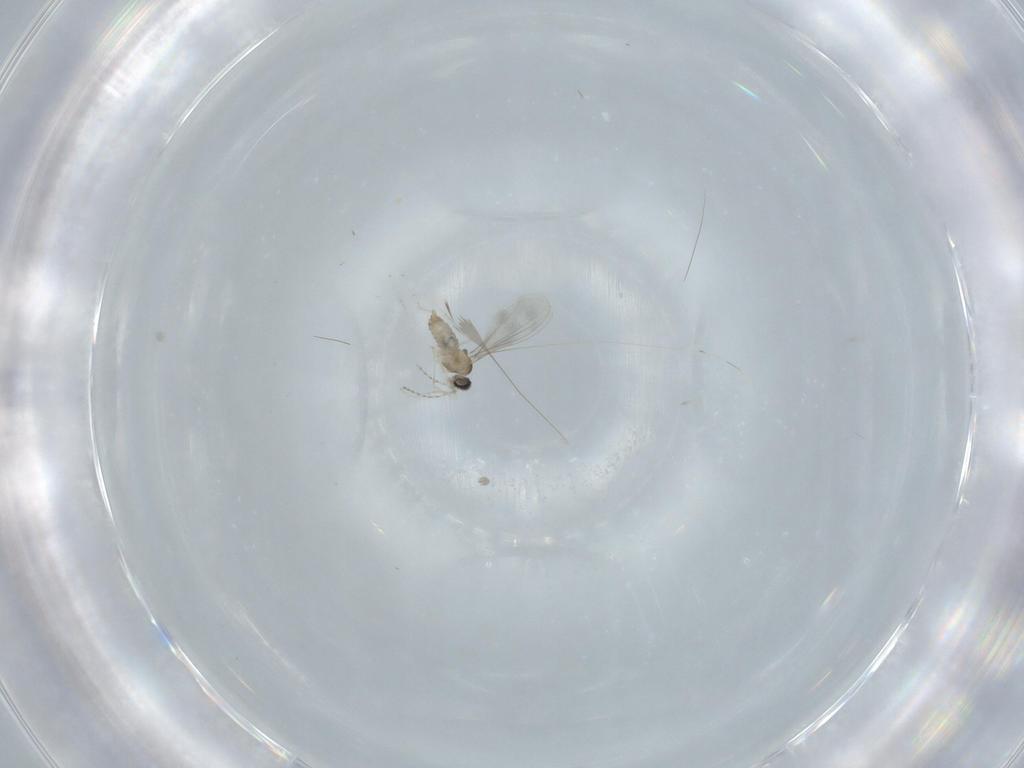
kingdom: Animalia
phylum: Arthropoda
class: Insecta
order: Diptera
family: Cecidomyiidae
